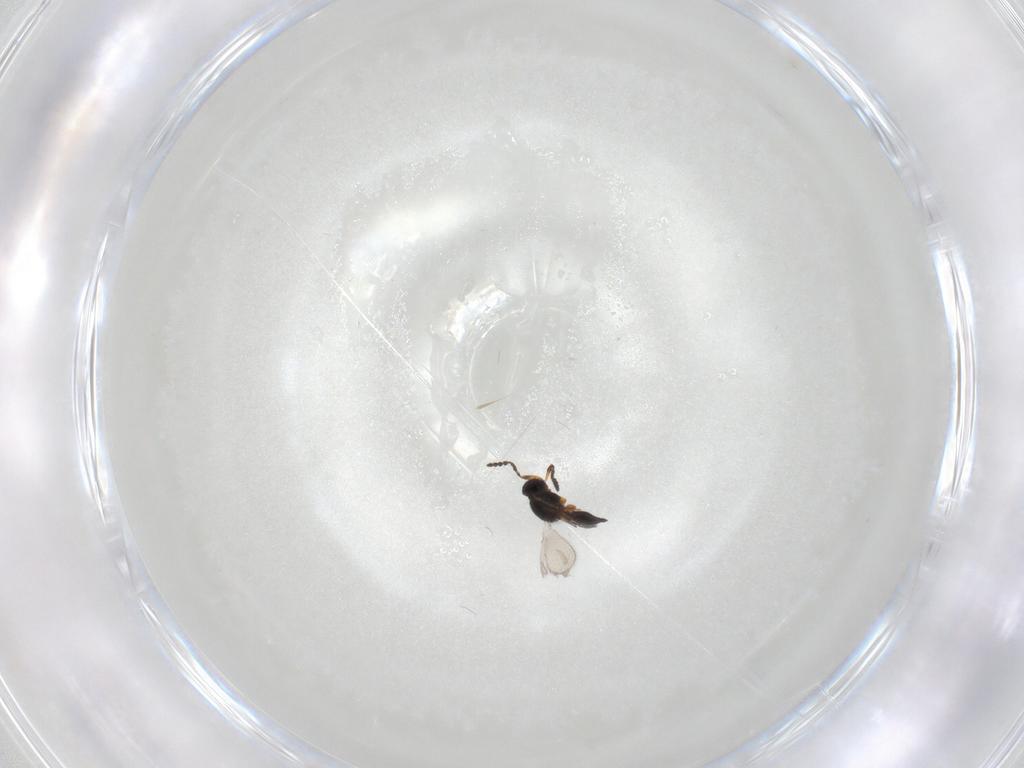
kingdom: Animalia
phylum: Arthropoda
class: Insecta
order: Hymenoptera
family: Platygastridae
